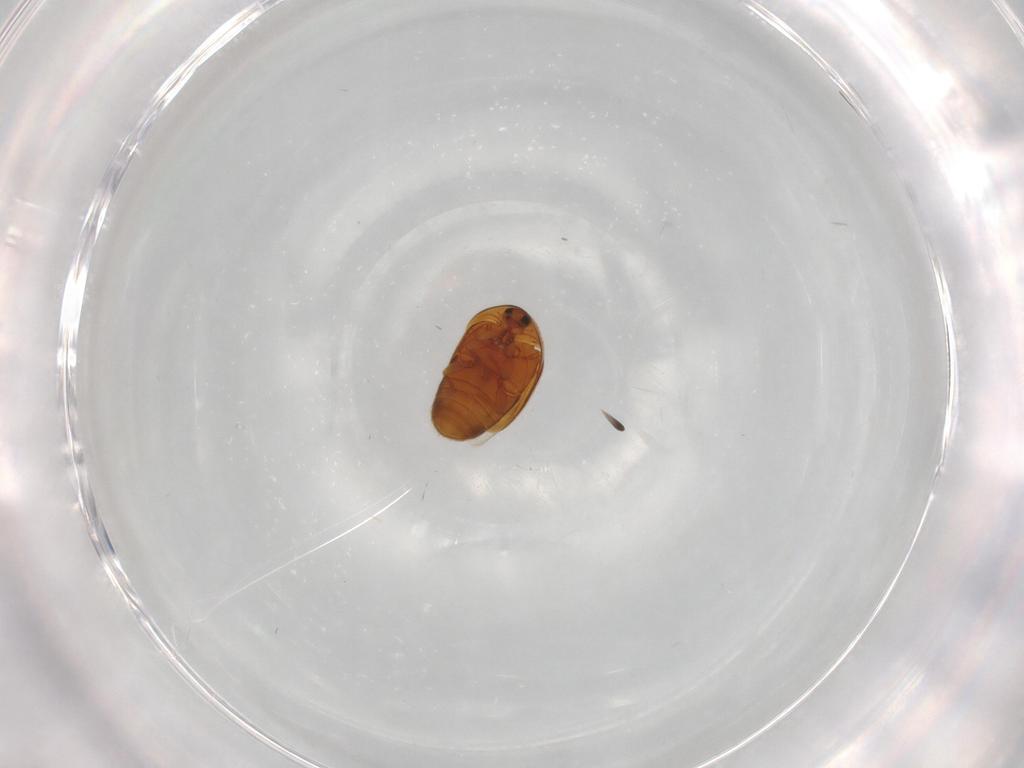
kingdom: Animalia
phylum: Arthropoda
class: Insecta
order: Coleoptera
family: Corylophidae
